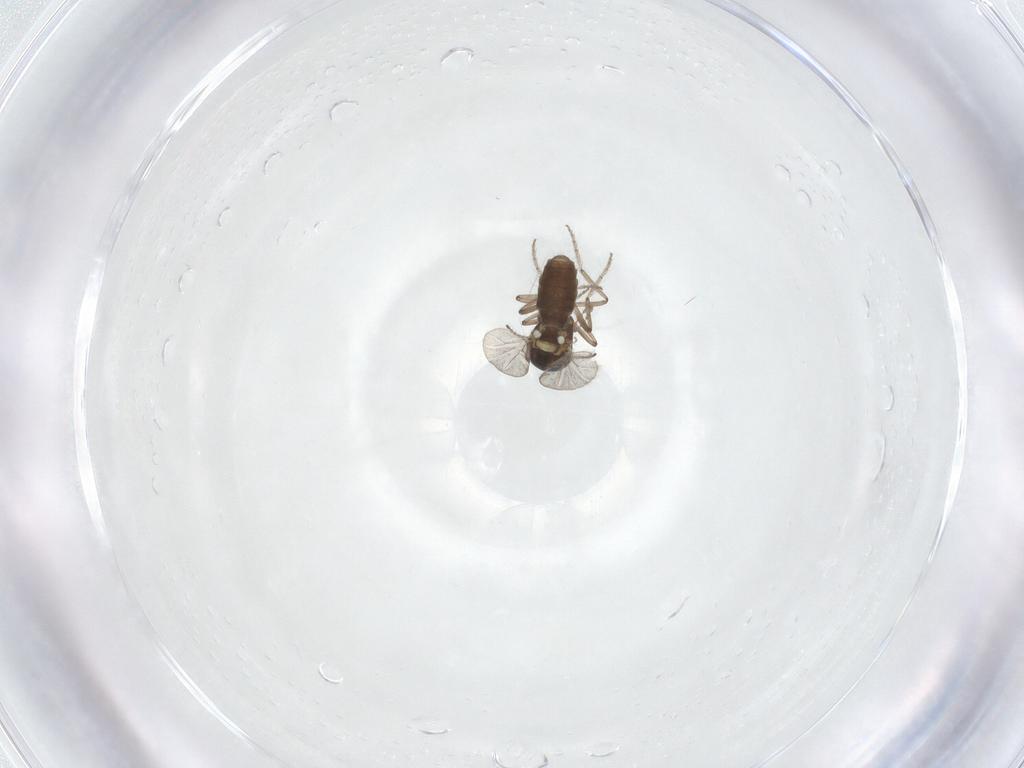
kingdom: Animalia
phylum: Arthropoda
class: Insecta
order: Diptera
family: Ceratopogonidae
